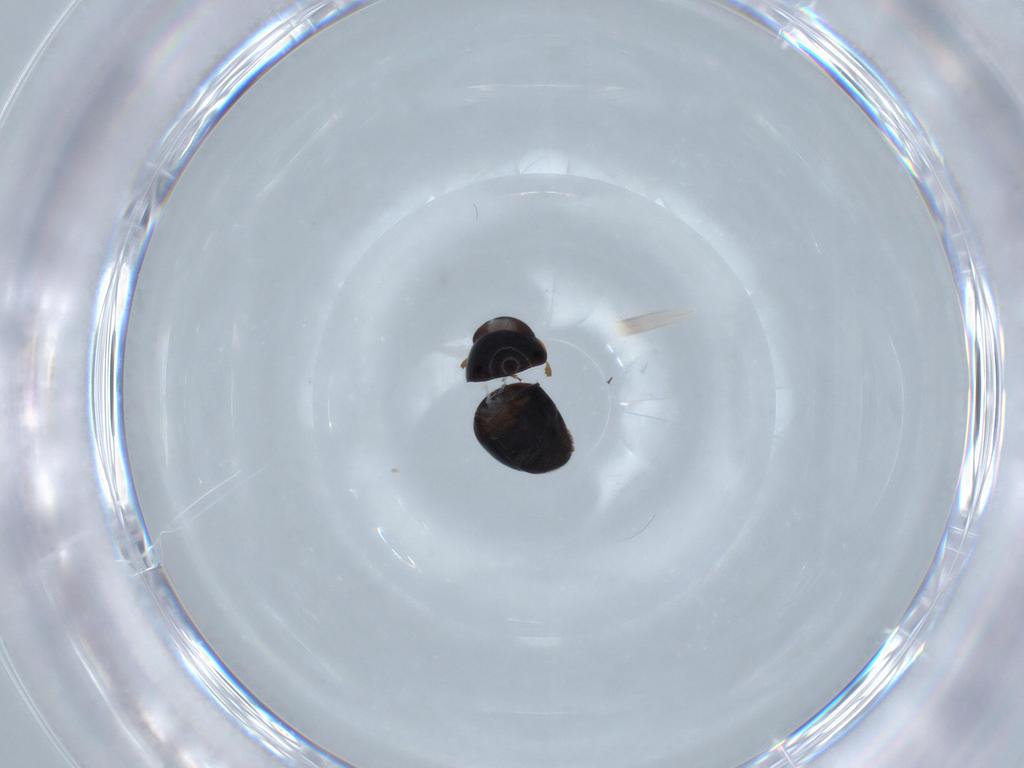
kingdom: Animalia
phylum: Arthropoda
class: Insecta
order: Coleoptera
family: Cybocephalidae
